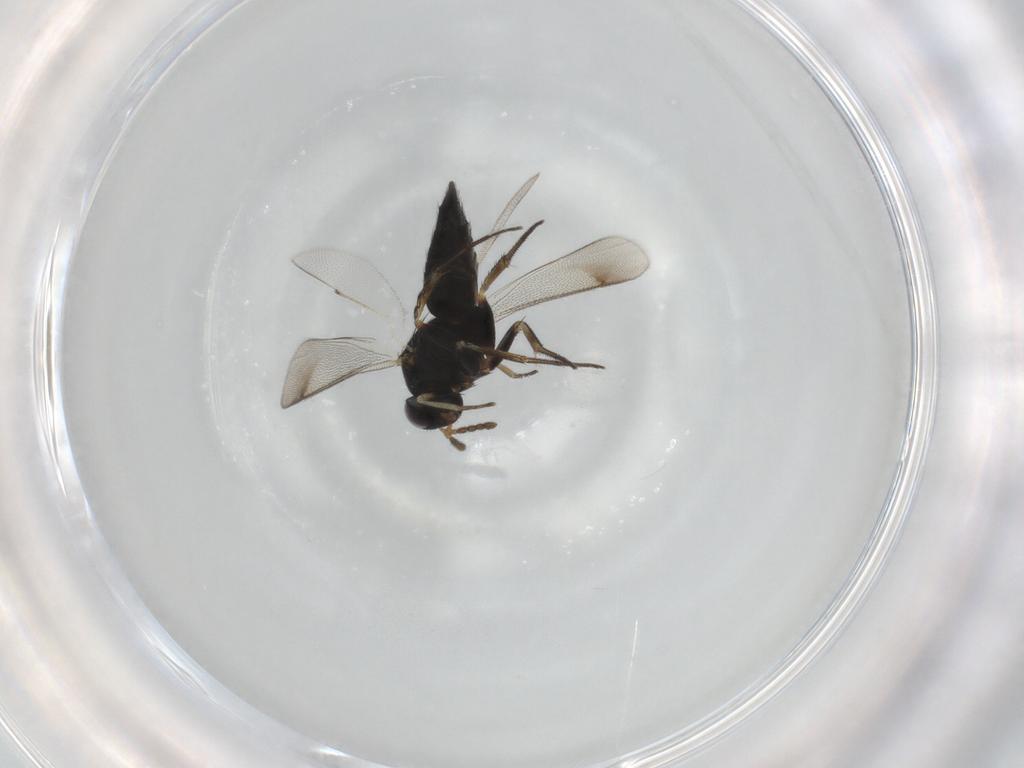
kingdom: Animalia
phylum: Arthropoda
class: Insecta
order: Hymenoptera
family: Eulophidae
